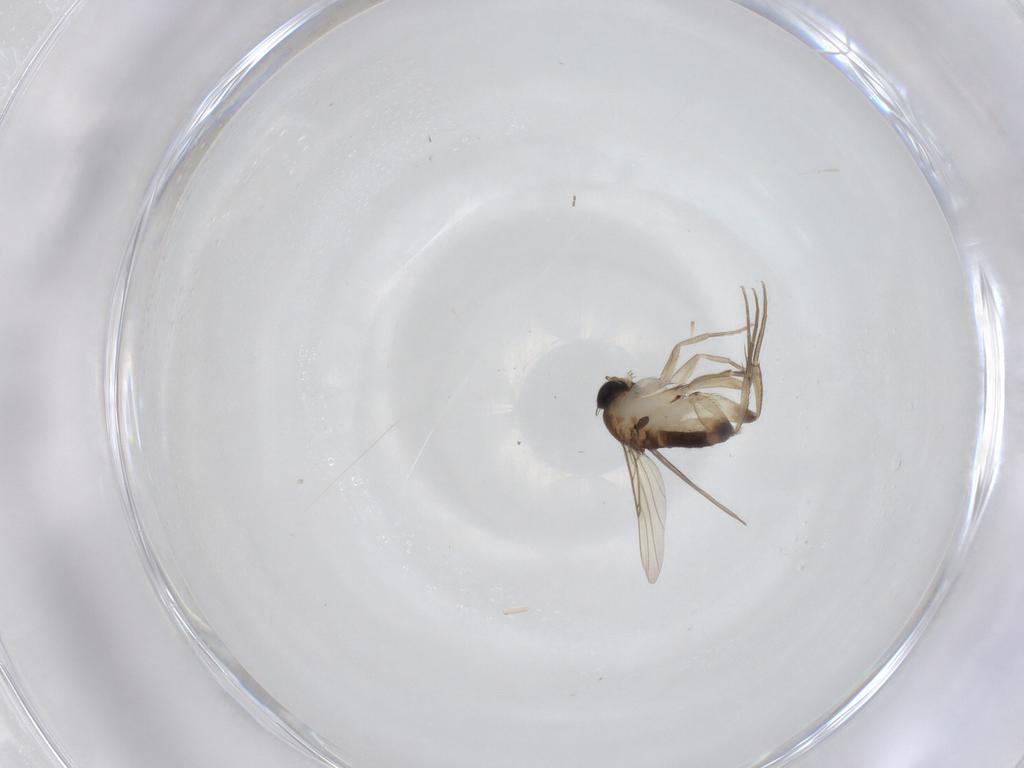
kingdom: Animalia
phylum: Arthropoda
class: Insecta
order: Diptera
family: Phoridae
